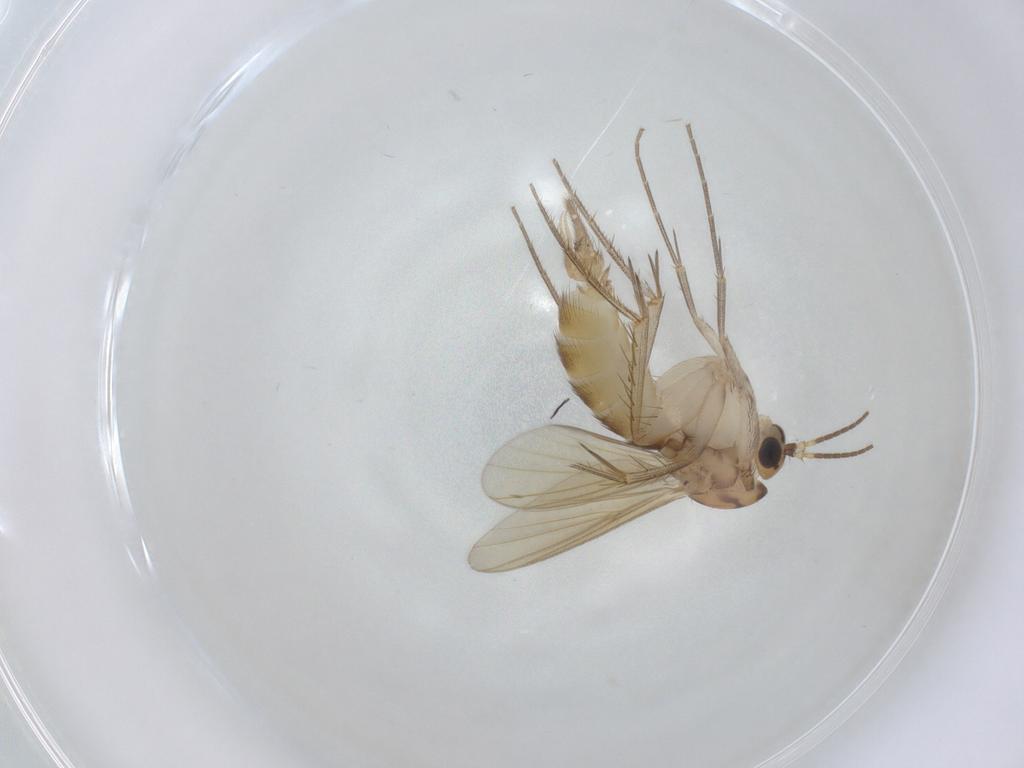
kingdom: Animalia
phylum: Arthropoda
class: Insecta
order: Diptera
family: Mycetophilidae
